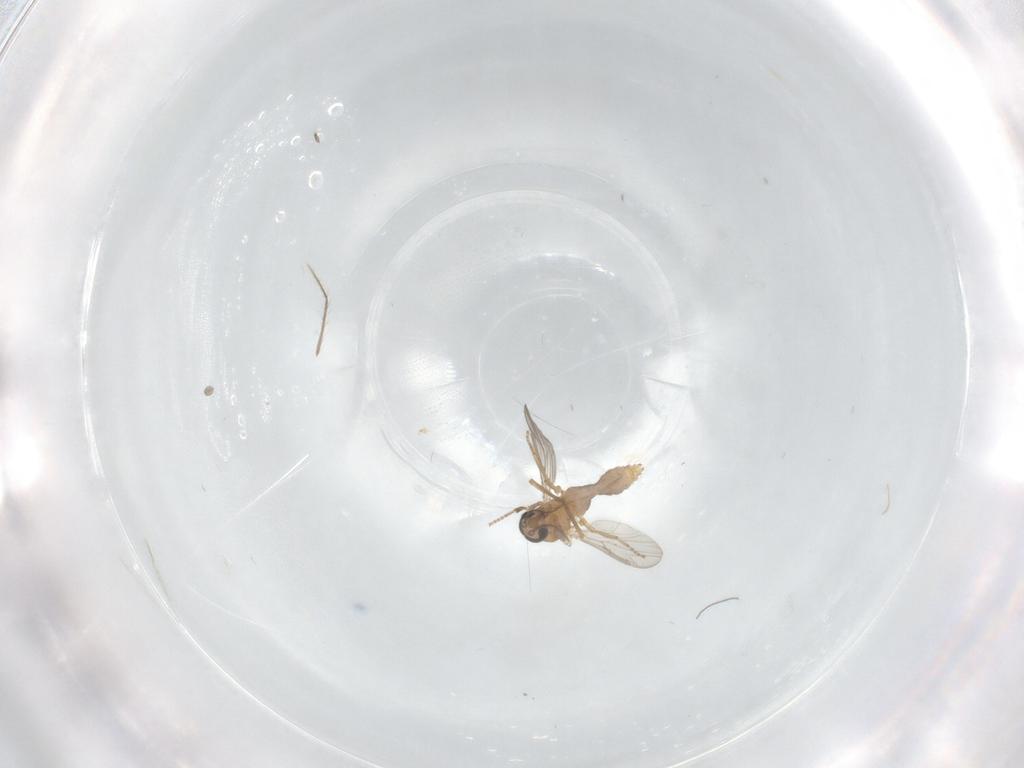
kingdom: Animalia
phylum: Arthropoda
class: Insecta
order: Diptera
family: Ceratopogonidae
